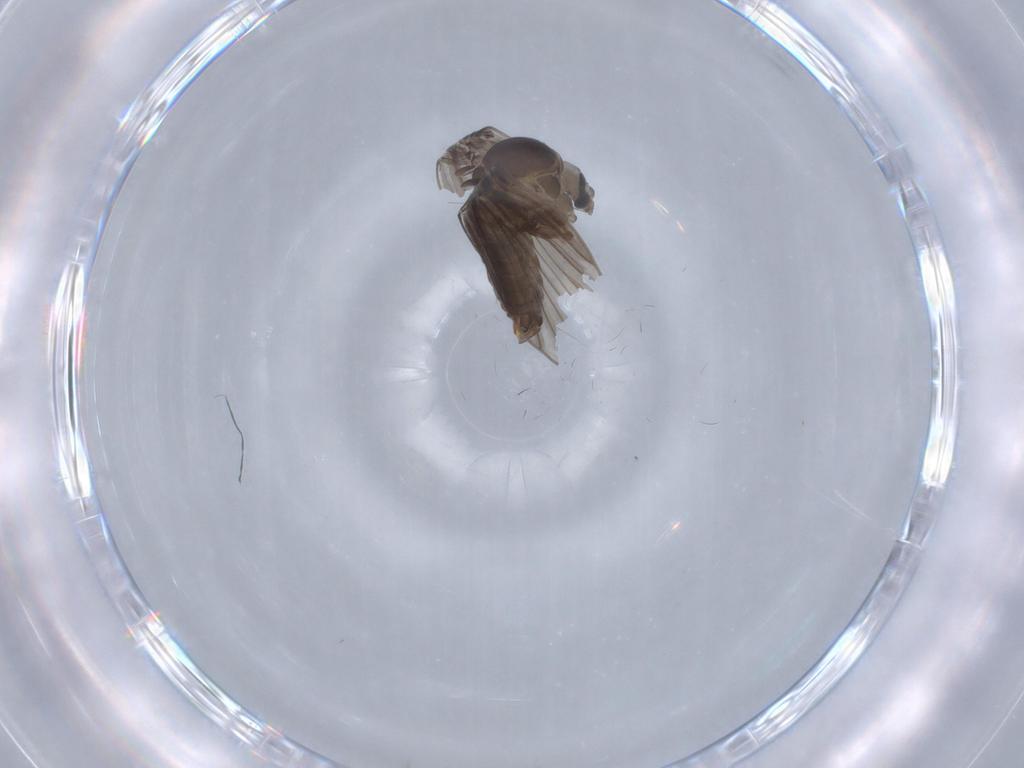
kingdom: Animalia
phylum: Arthropoda
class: Insecta
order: Diptera
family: Psychodidae
